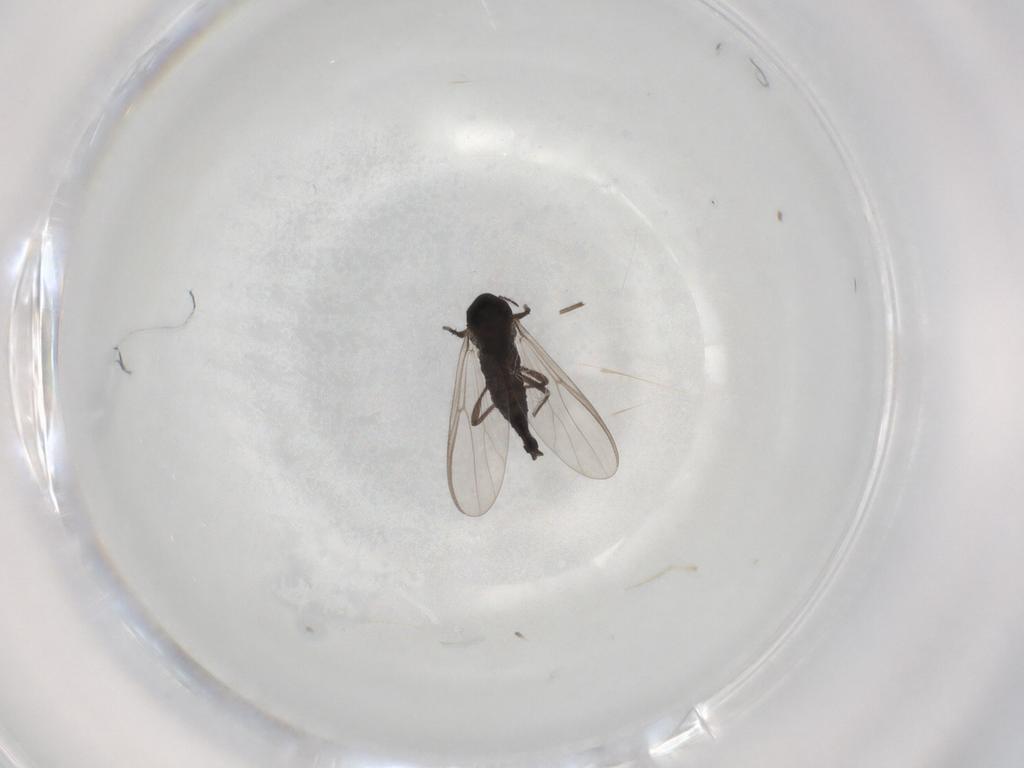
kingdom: Animalia
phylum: Arthropoda
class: Insecta
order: Diptera
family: Chironomidae
